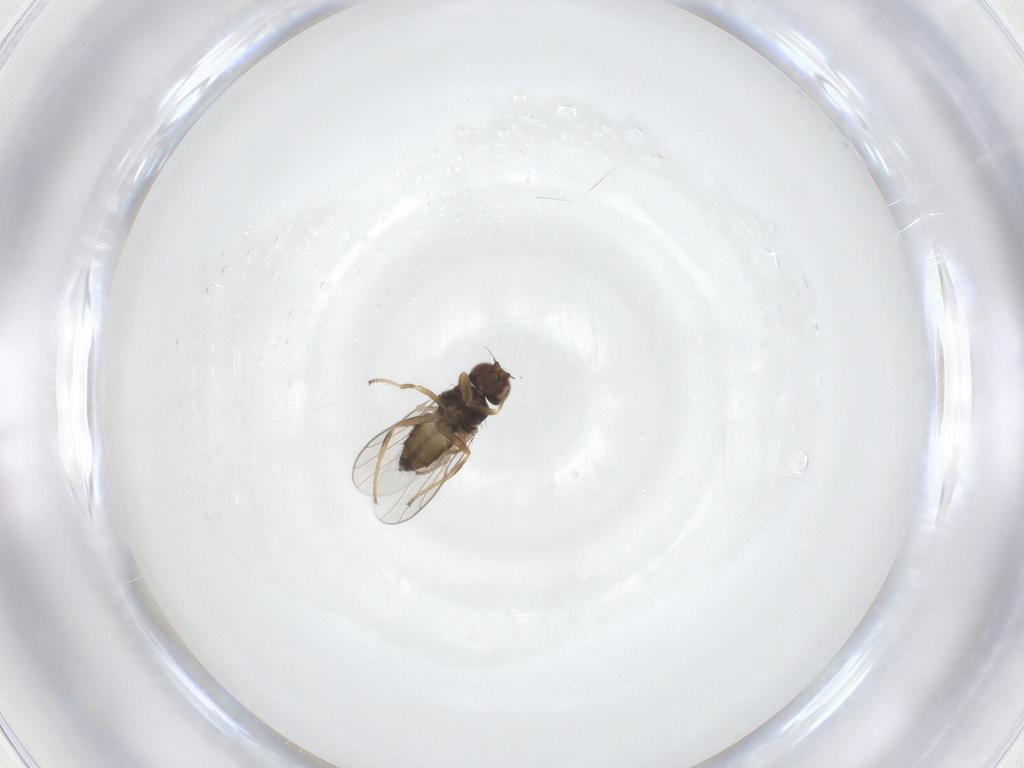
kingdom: Animalia
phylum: Arthropoda
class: Insecta
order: Diptera
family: Chloropidae
